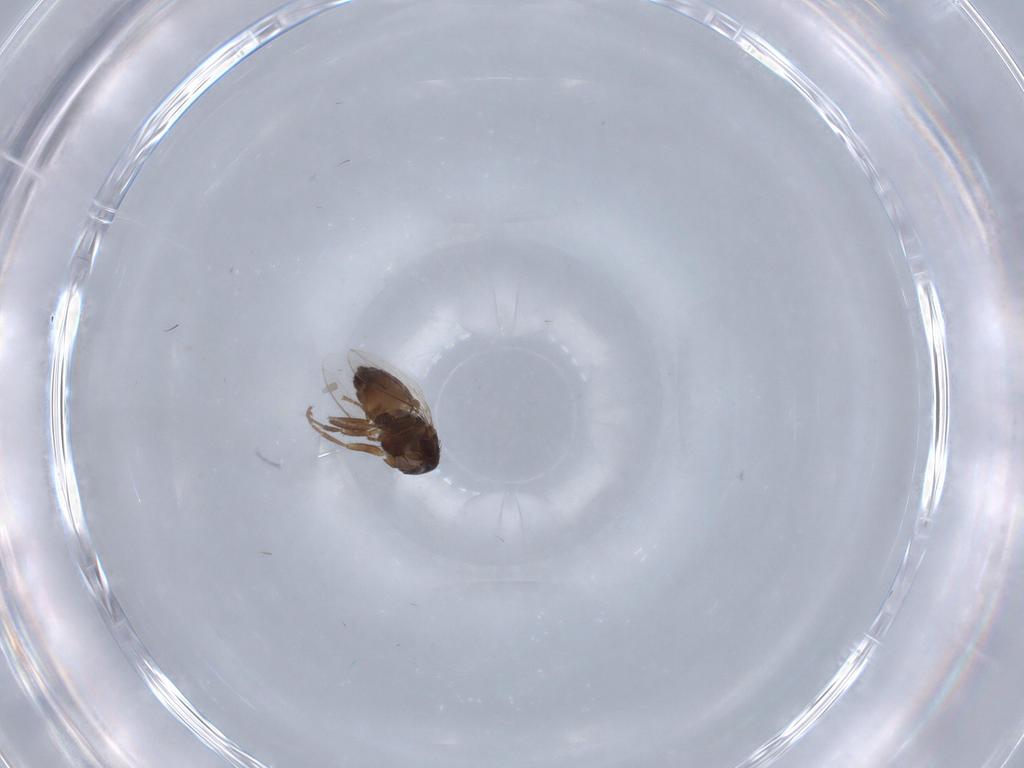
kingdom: Animalia
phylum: Arthropoda
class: Insecta
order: Diptera
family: Sphaeroceridae
